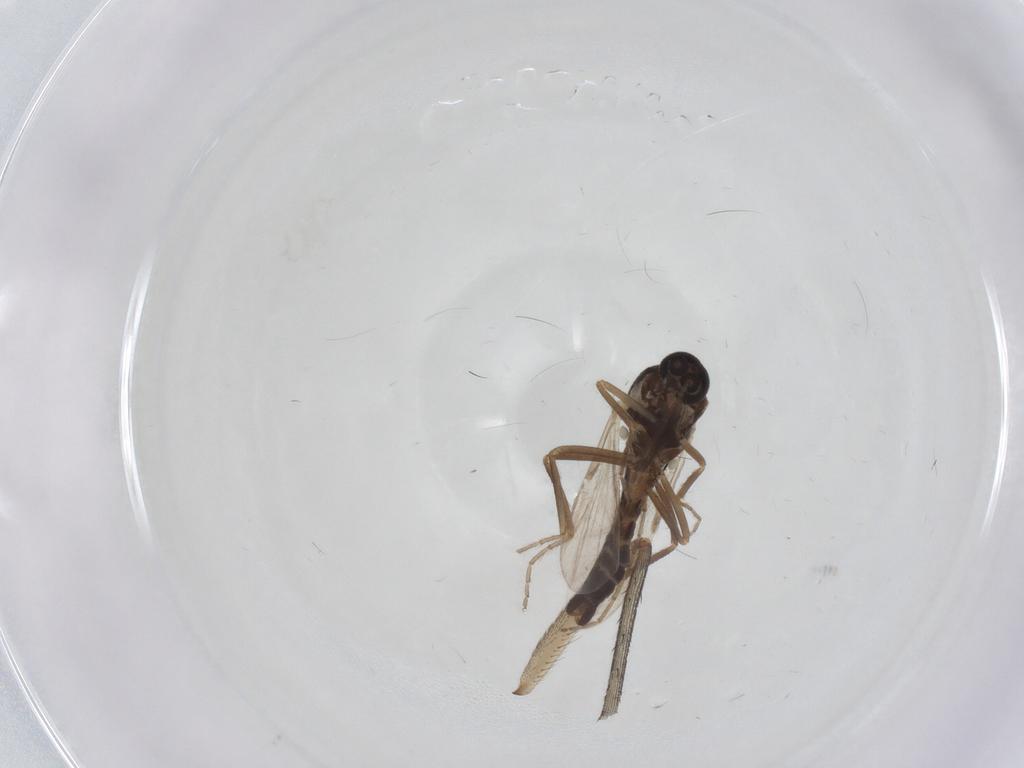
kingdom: Animalia
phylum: Arthropoda
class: Insecta
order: Diptera
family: Ceratopogonidae
